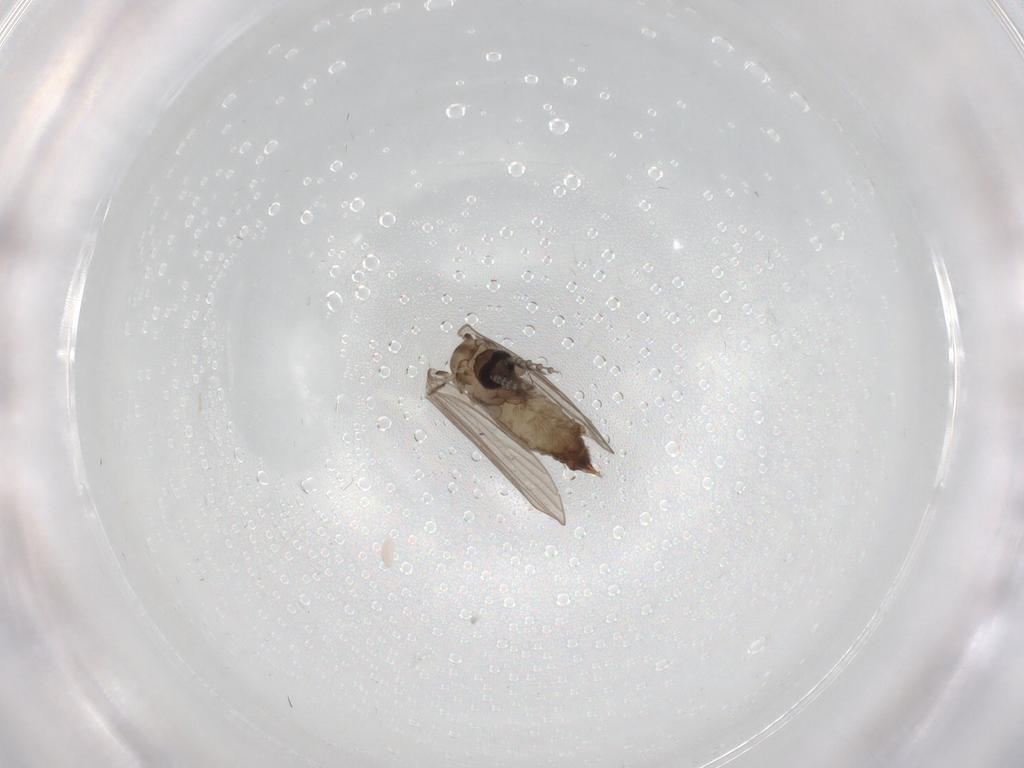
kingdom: Animalia
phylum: Arthropoda
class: Insecta
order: Diptera
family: Psychodidae
